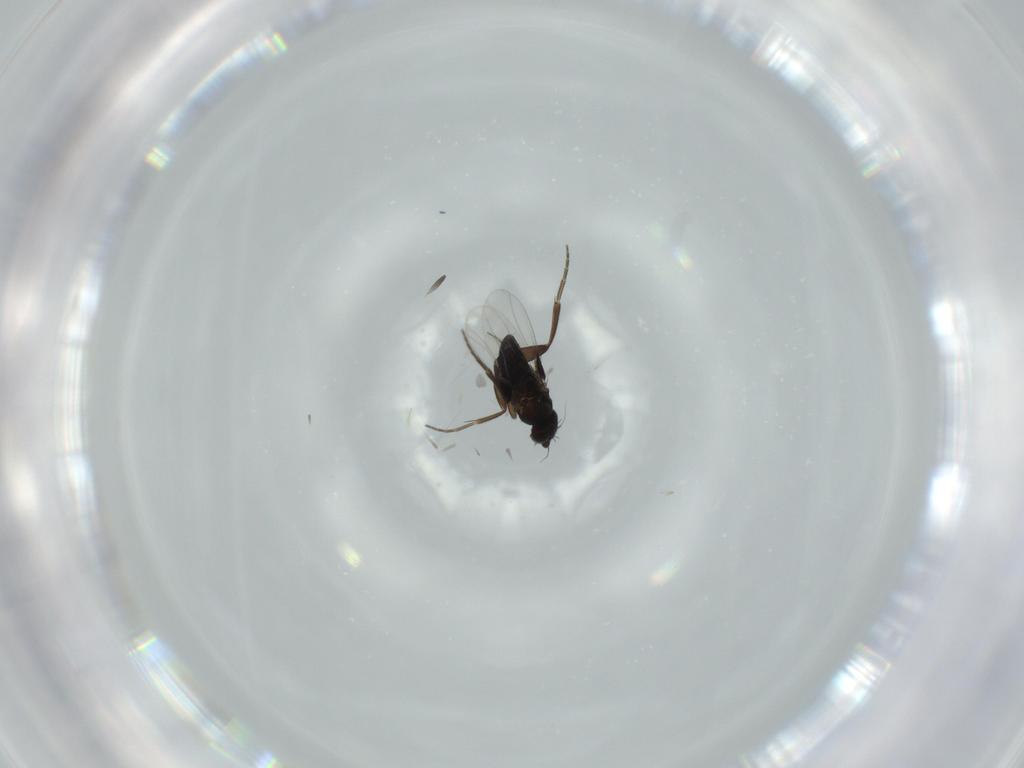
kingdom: Animalia
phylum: Arthropoda
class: Insecta
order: Diptera
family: Phoridae
